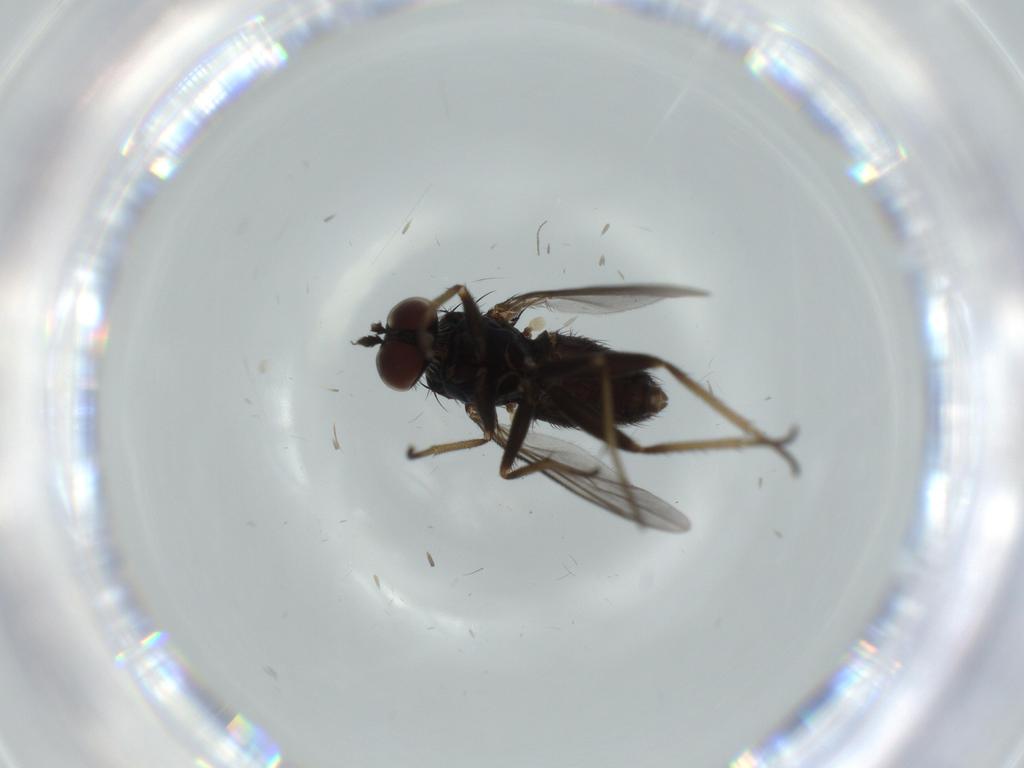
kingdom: Animalia
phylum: Arthropoda
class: Insecta
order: Diptera
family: Dolichopodidae
